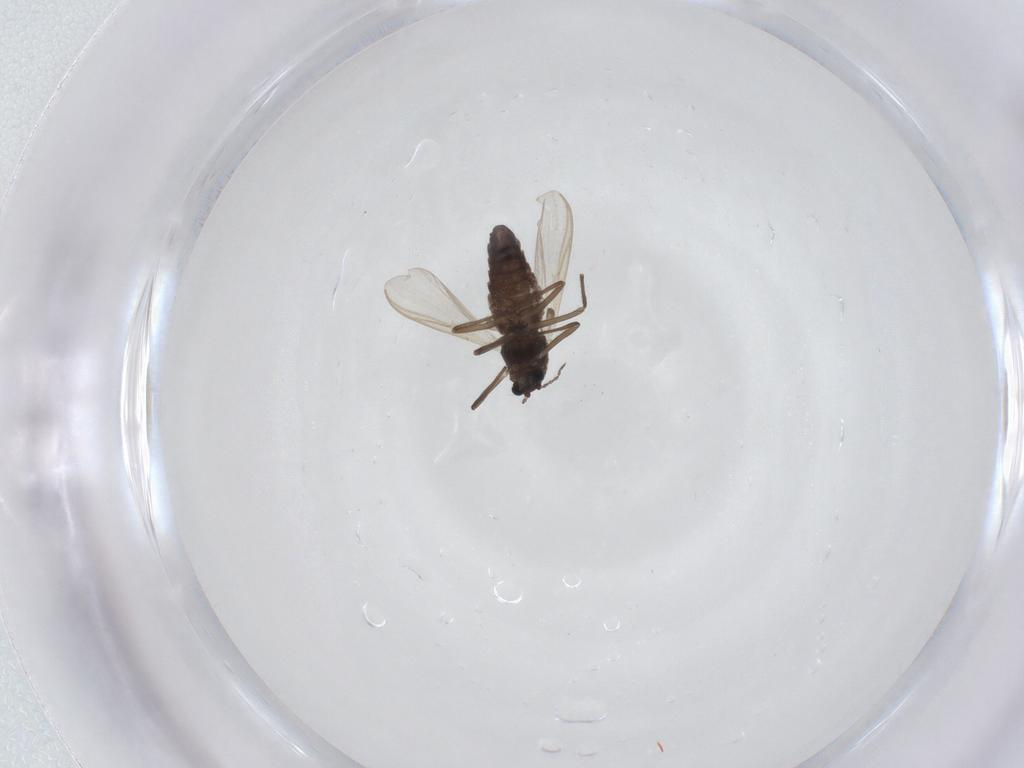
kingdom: Animalia
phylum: Arthropoda
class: Insecta
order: Diptera
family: Chironomidae
